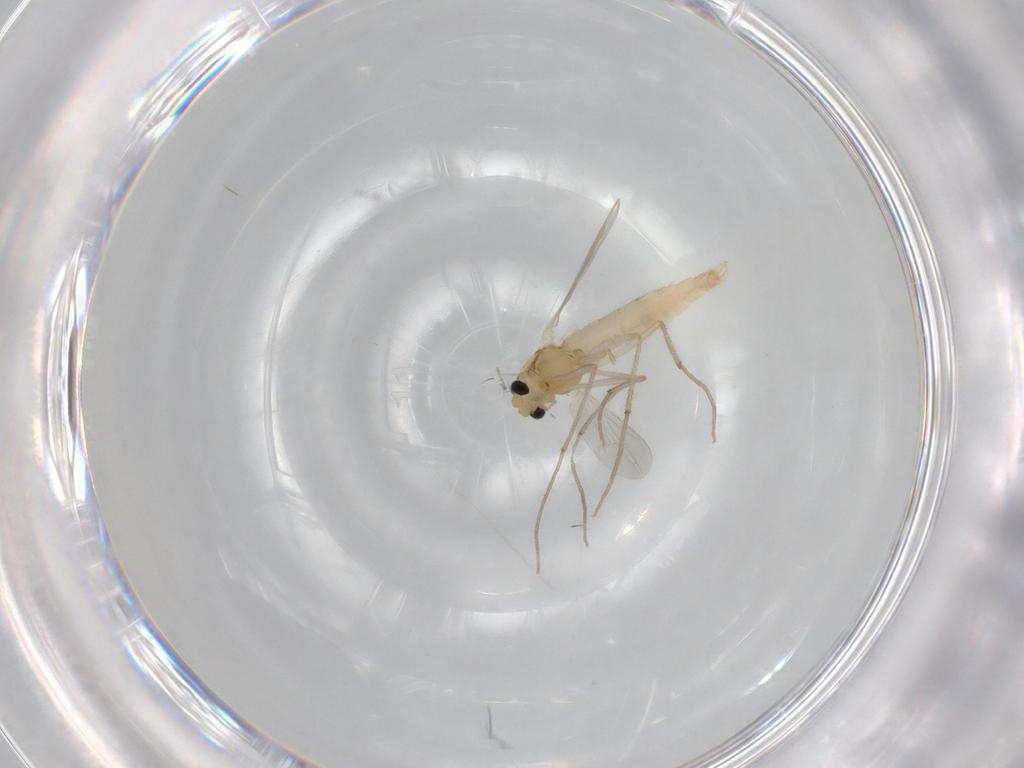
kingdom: Animalia
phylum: Arthropoda
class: Insecta
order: Diptera
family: Chironomidae
